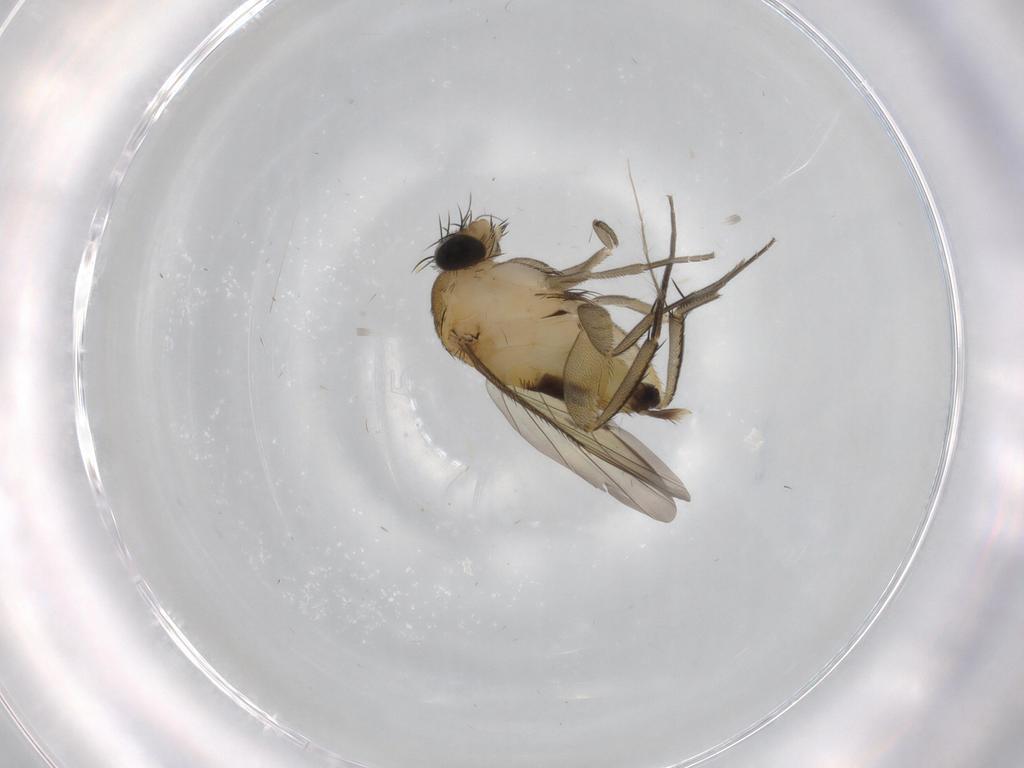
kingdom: Animalia
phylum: Arthropoda
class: Insecta
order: Diptera
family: Phoridae
